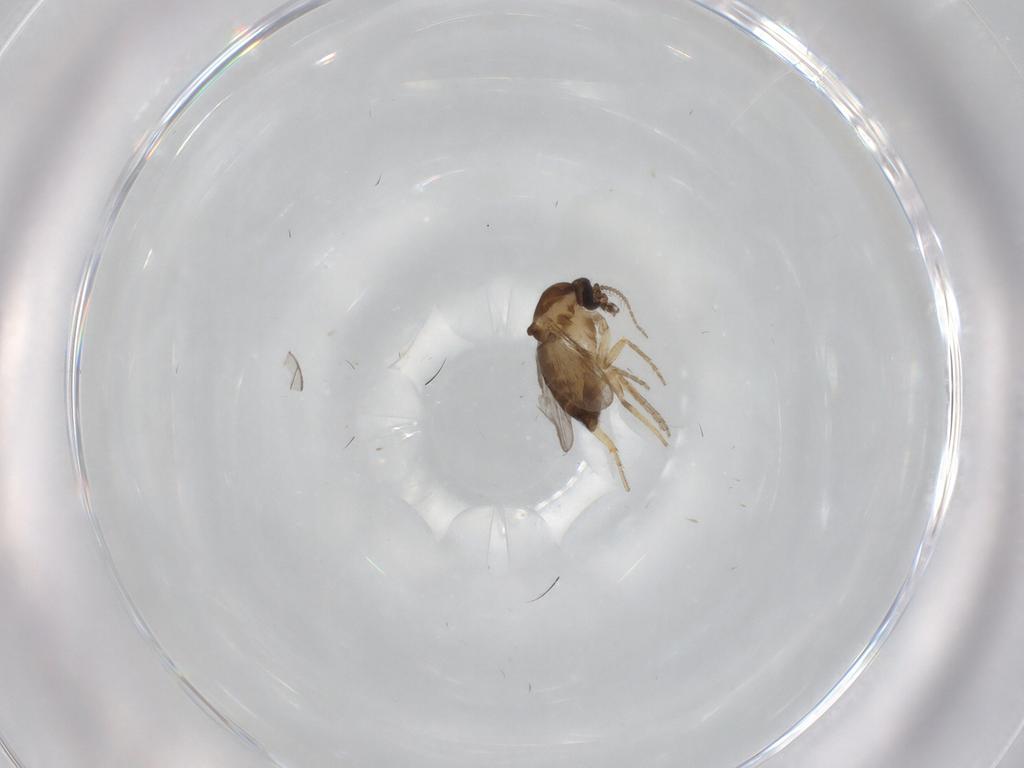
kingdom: Animalia
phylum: Arthropoda
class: Insecta
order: Diptera
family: Ceratopogonidae
